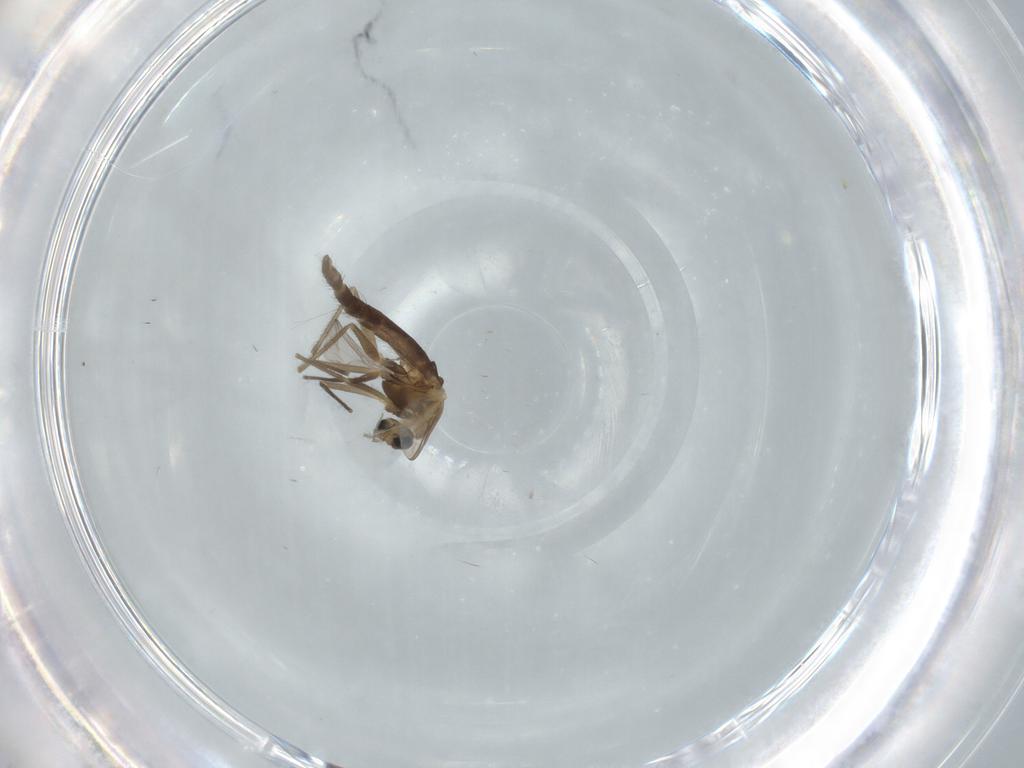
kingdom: Animalia
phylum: Arthropoda
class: Insecta
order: Diptera
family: Chironomidae
